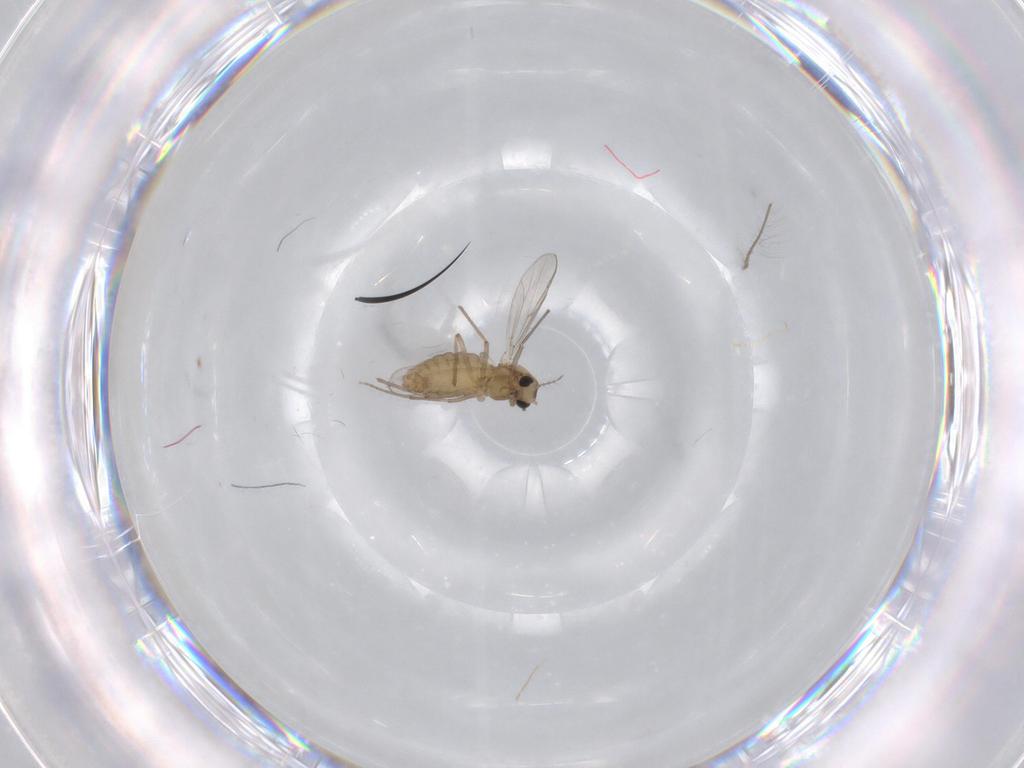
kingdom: Animalia
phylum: Arthropoda
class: Insecta
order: Diptera
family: Chironomidae
